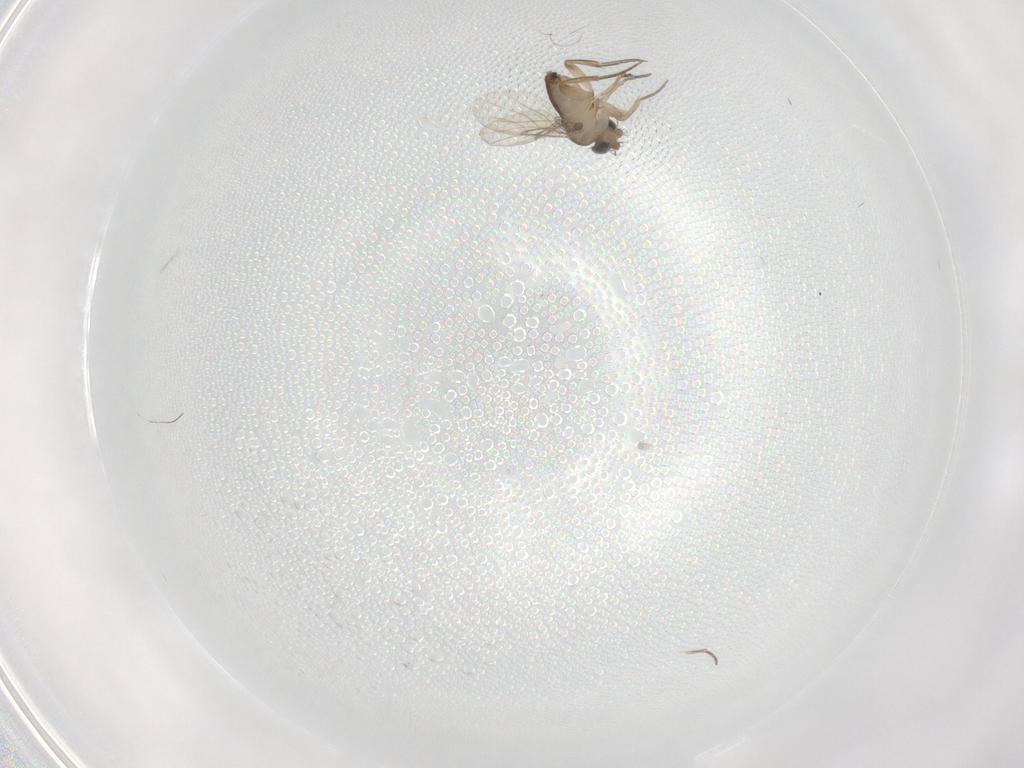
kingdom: Animalia
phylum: Arthropoda
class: Insecta
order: Diptera
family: Phoridae
